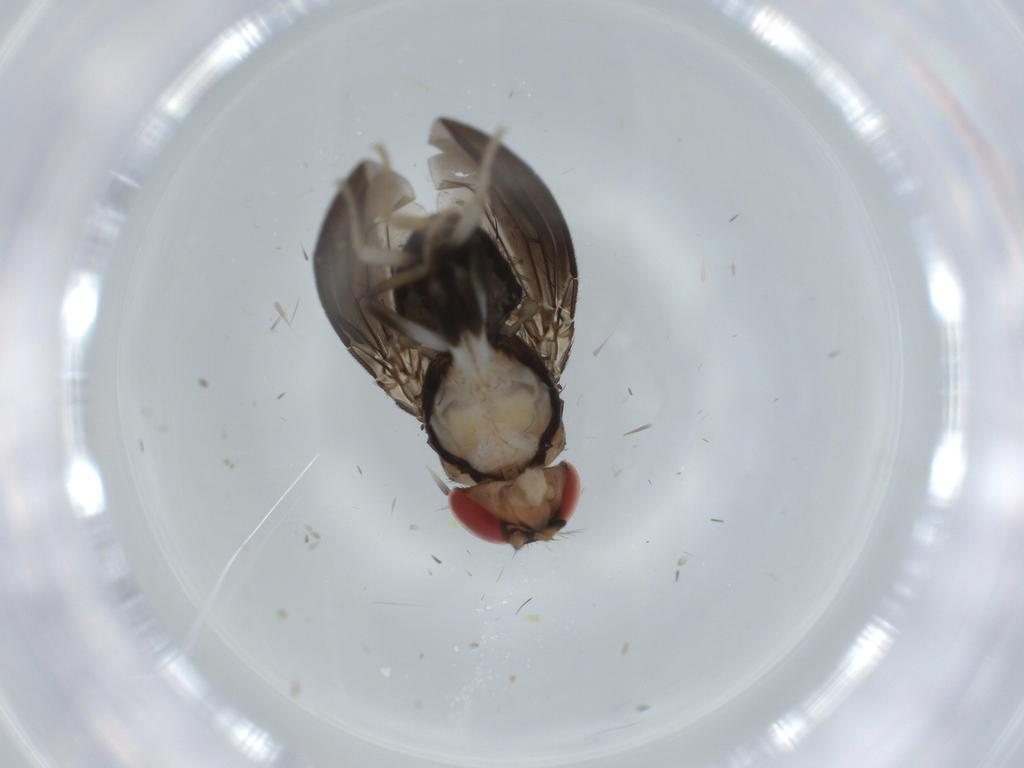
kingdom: Animalia
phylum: Arthropoda
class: Insecta
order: Diptera
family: Drosophilidae
